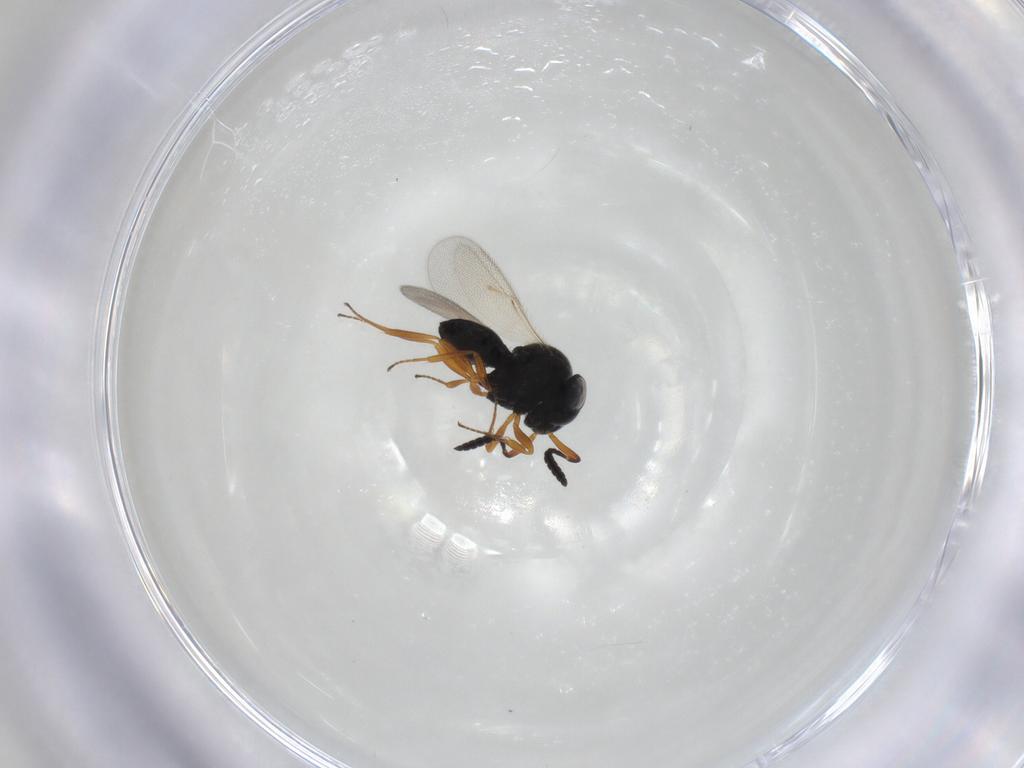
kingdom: Animalia
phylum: Arthropoda
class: Insecta
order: Hymenoptera
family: Scelionidae
